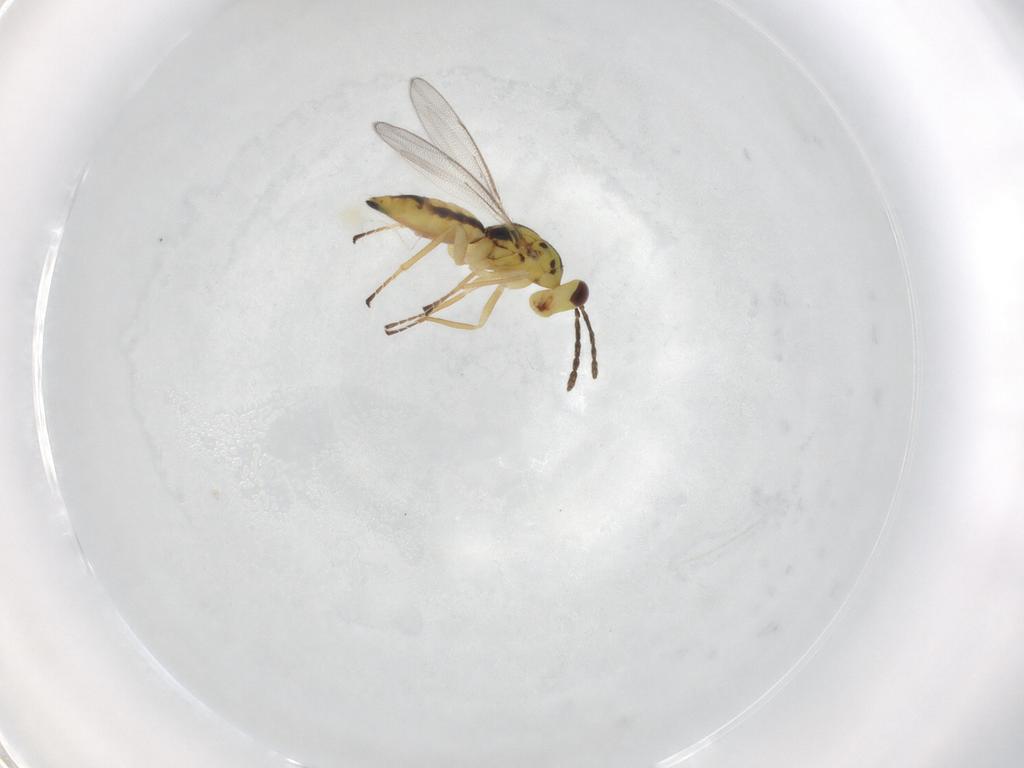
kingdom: Animalia
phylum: Arthropoda
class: Insecta
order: Hymenoptera
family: Eulophidae
